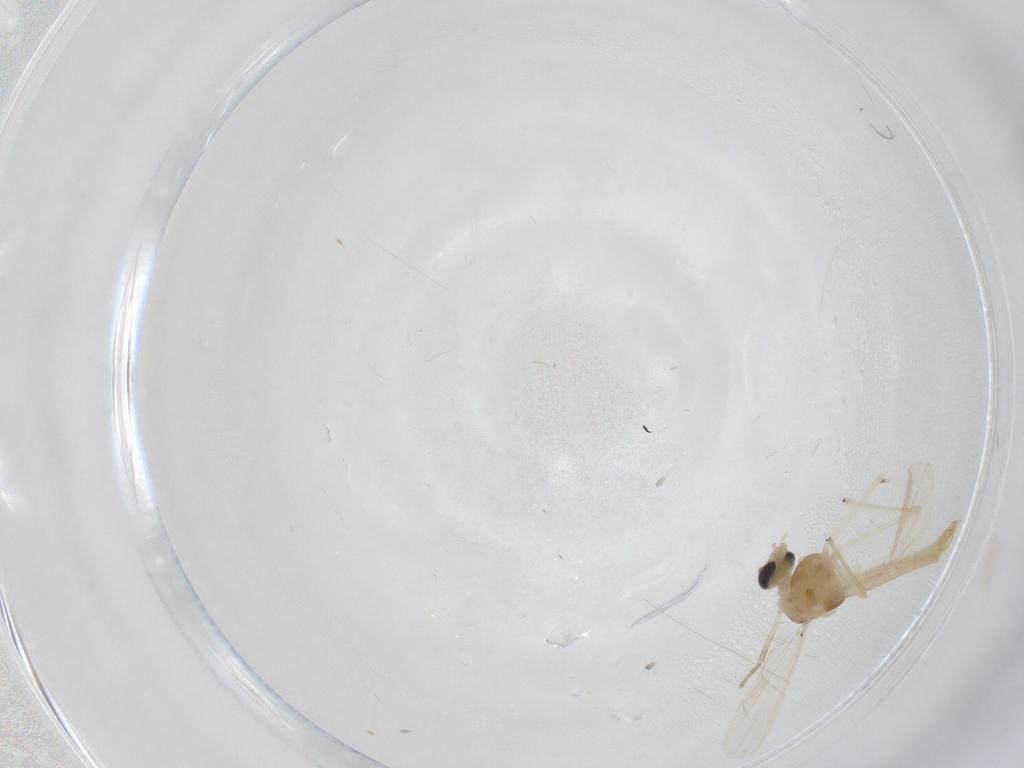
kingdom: Animalia
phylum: Arthropoda
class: Insecta
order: Diptera
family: Chironomidae
